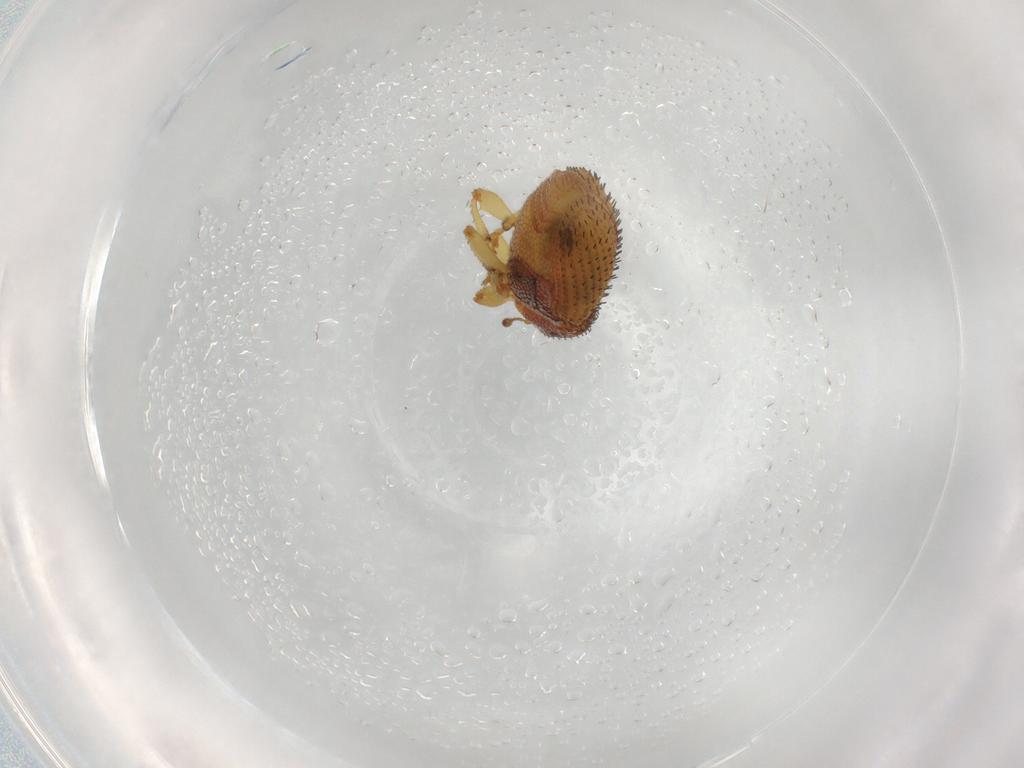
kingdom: Animalia
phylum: Arthropoda
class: Insecta
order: Coleoptera
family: Curculionidae
